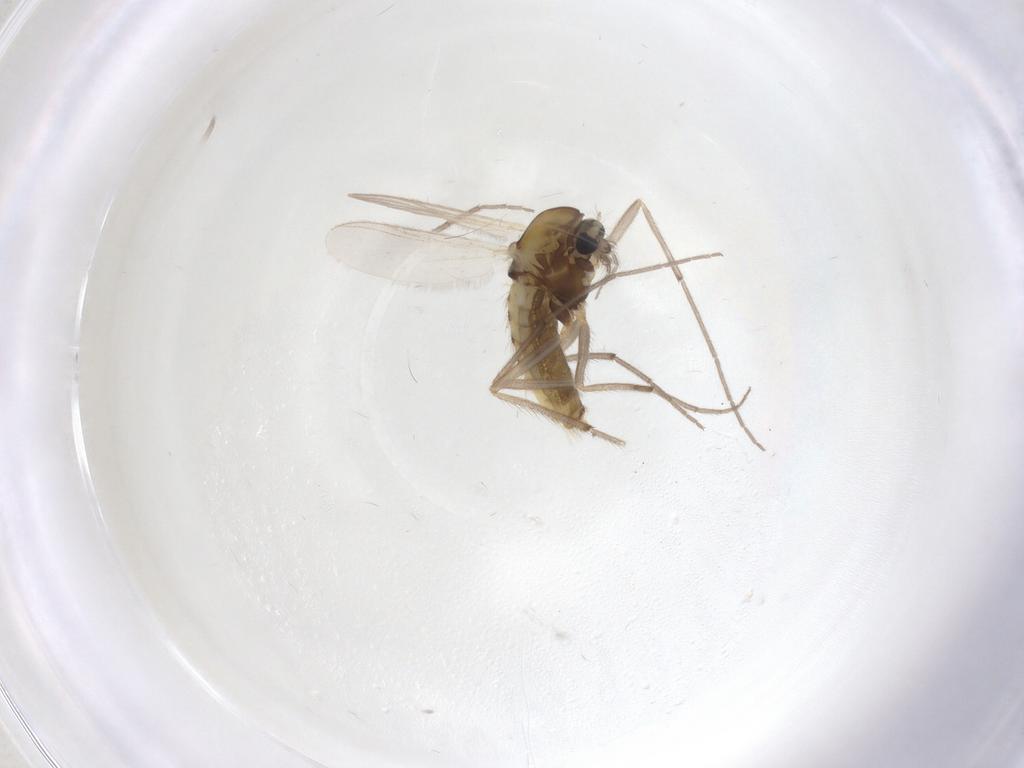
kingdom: Animalia
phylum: Arthropoda
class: Insecta
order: Diptera
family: Chironomidae
